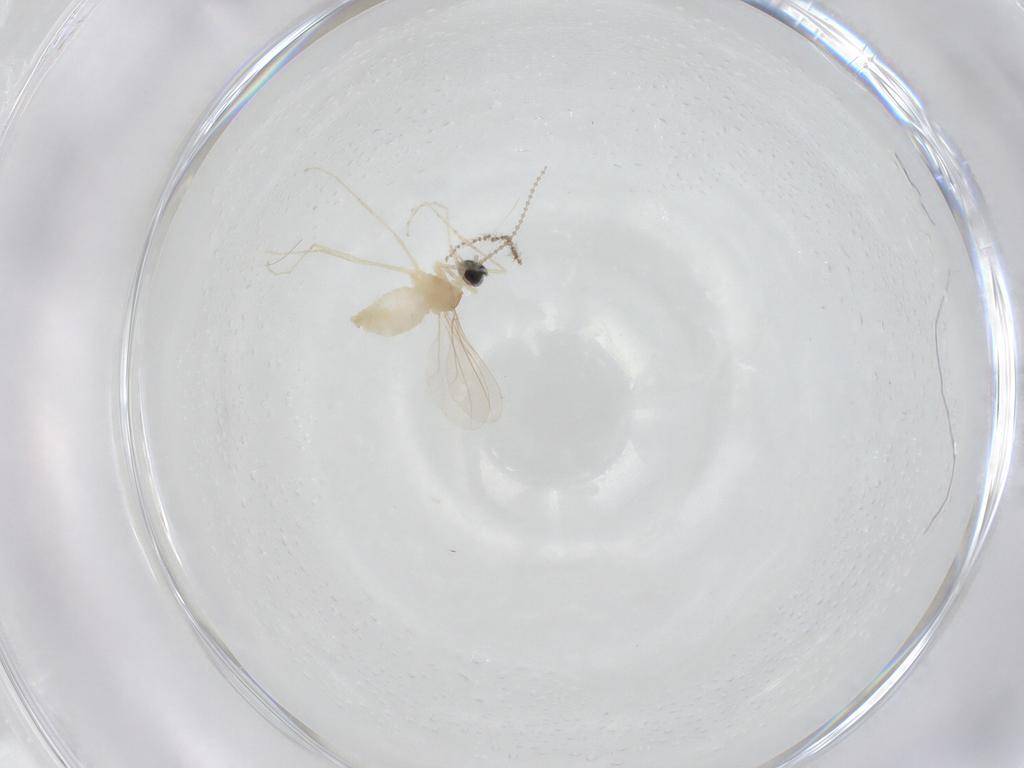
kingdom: Animalia
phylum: Arthropoda
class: Insecta
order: Diptera
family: Cecidomyiidae
